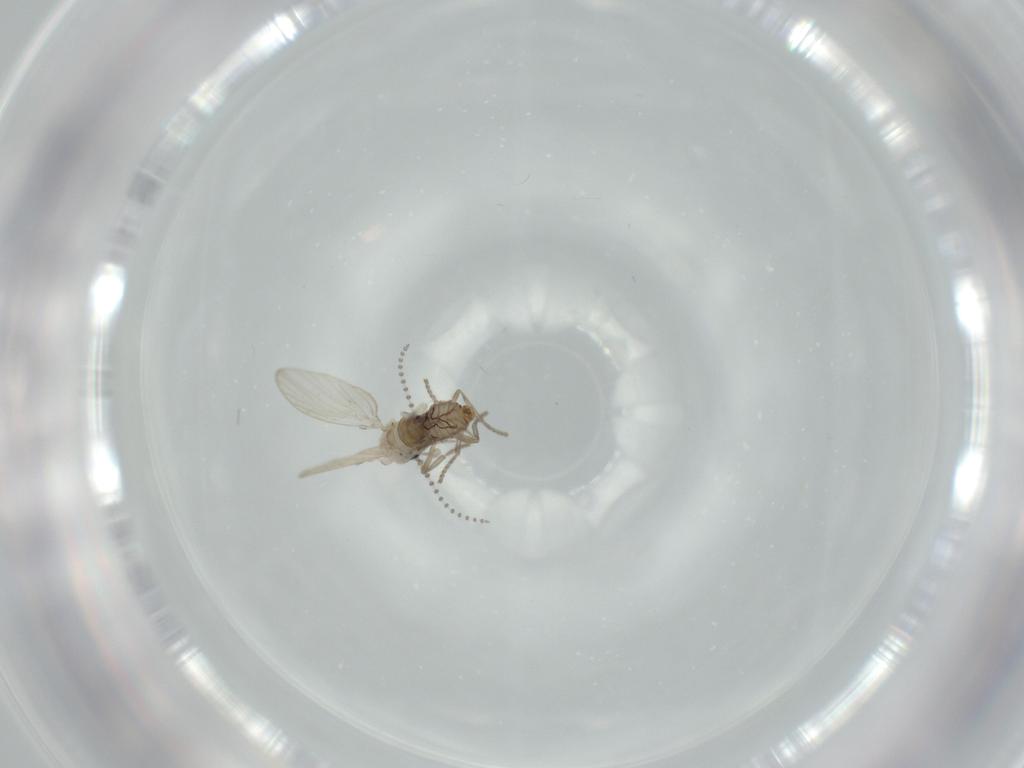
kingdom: Animalia
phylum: Arthropoda
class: Insecta
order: Diptera
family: Psychodidae
